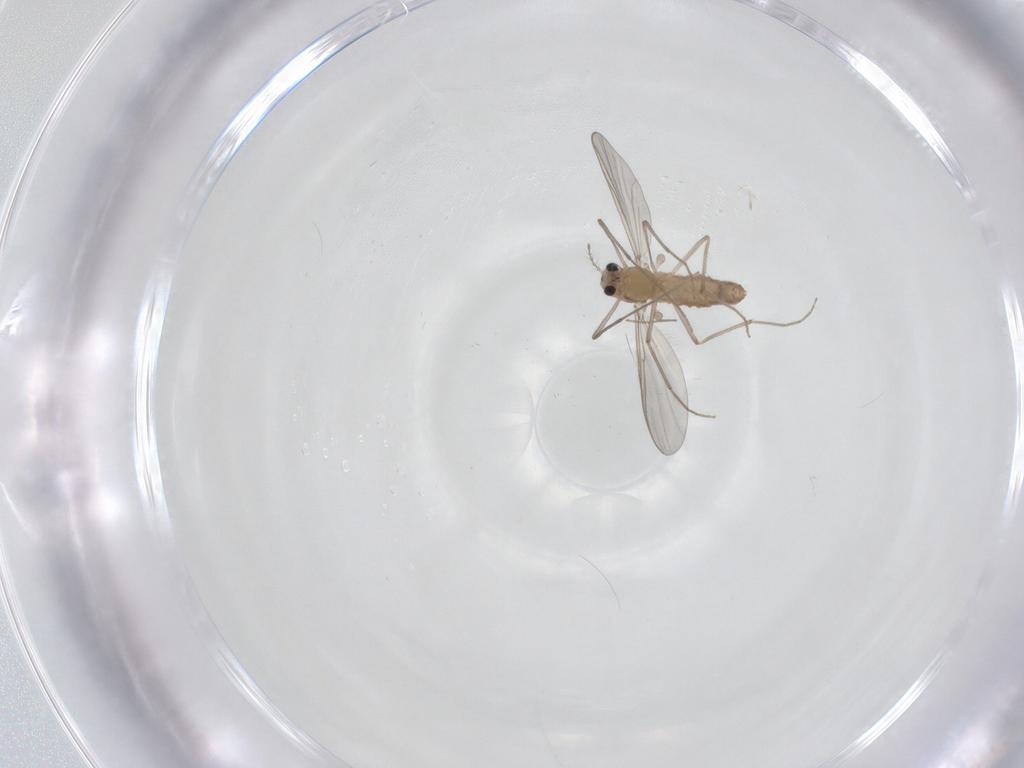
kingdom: Animalia
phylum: Arthropoda
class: Insecta
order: Diptera
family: Chironomidae
